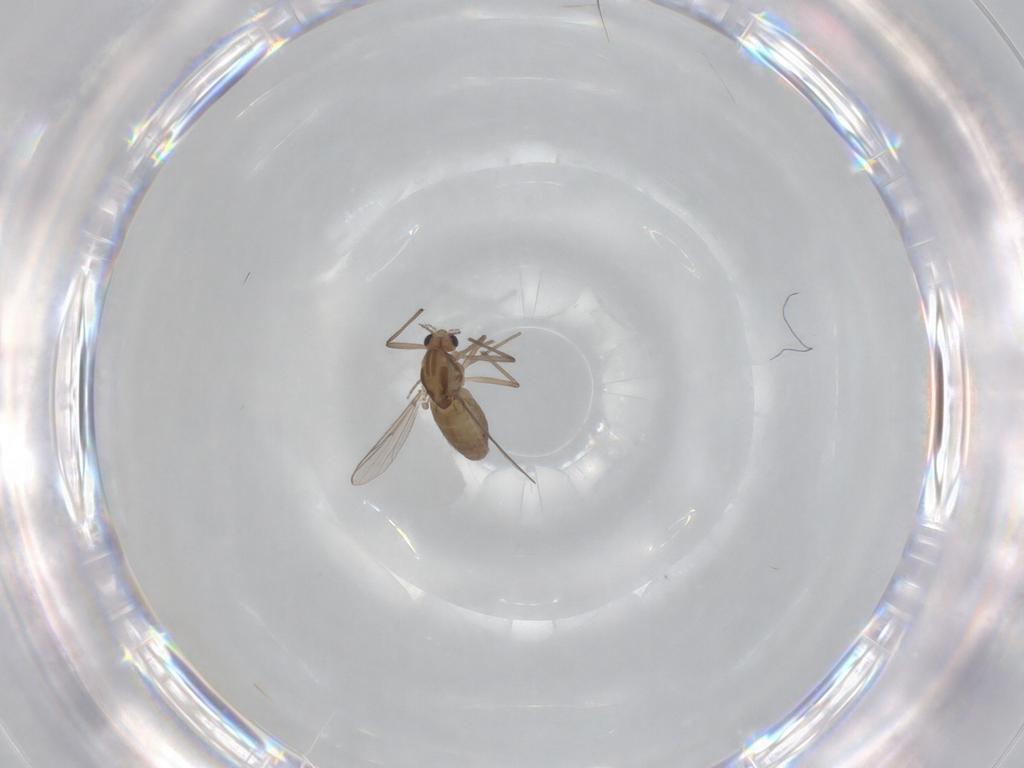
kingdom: Animalia
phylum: Arthropoda
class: Insecta
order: Diptera
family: Chironomidae
